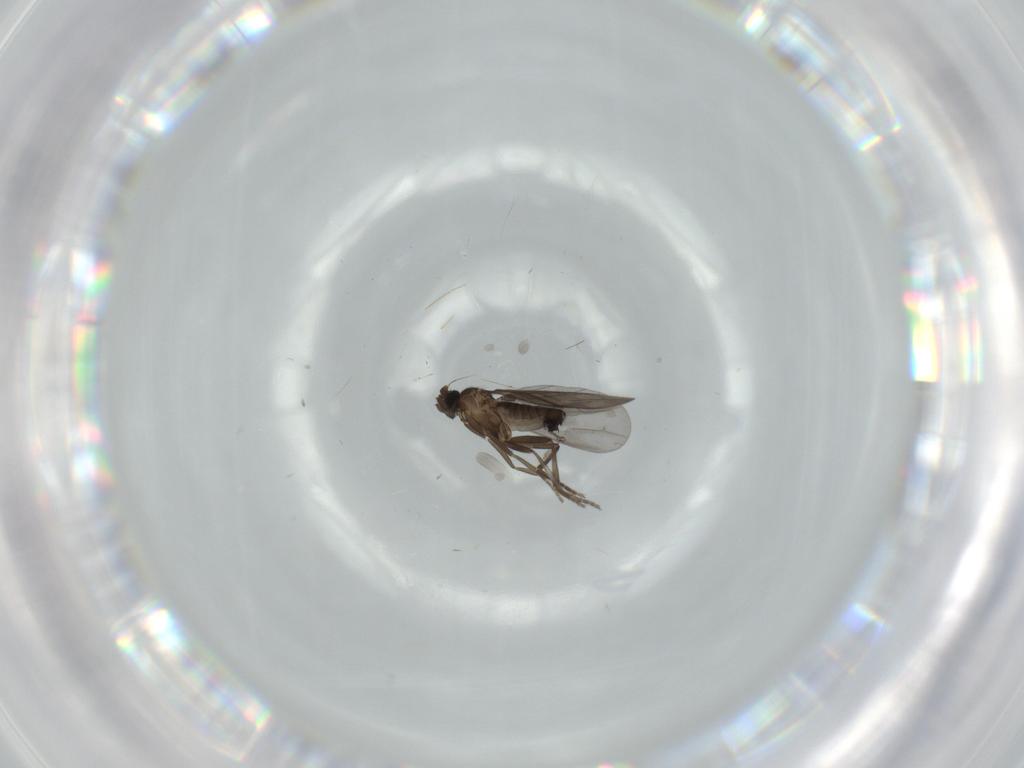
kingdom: Animalia
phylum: Arthropoda
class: Insecta
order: Diptera
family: Phoridae
